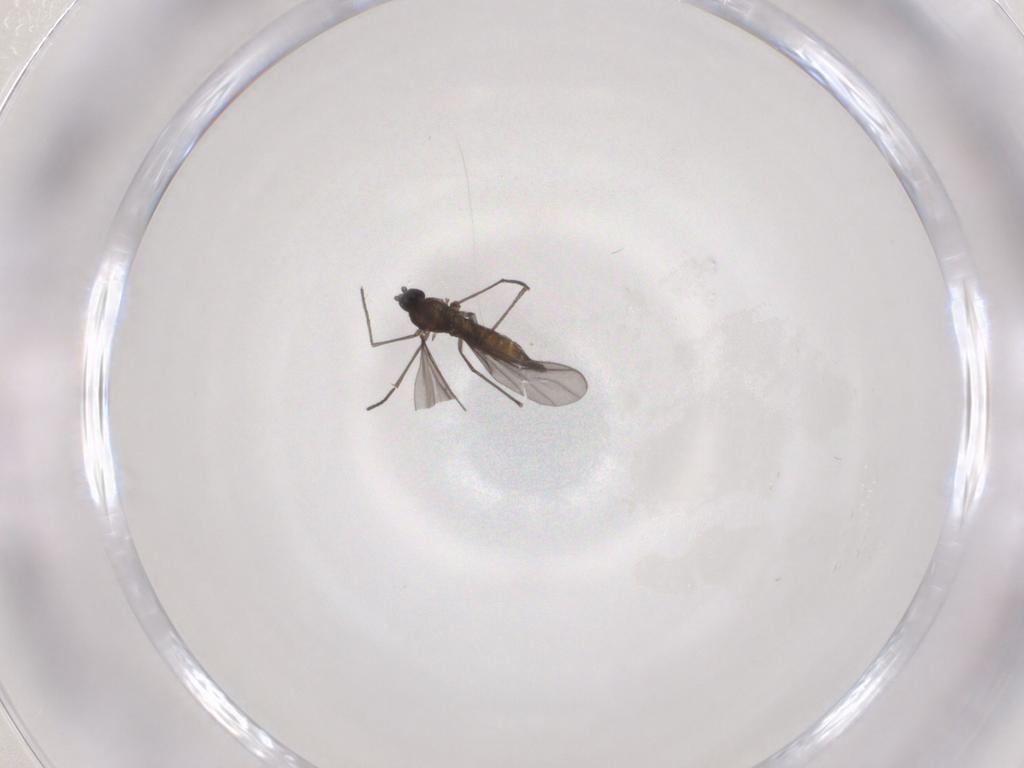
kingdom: Animalia
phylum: Arthropoda
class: Insecta
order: Diptera
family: Sciaridae
